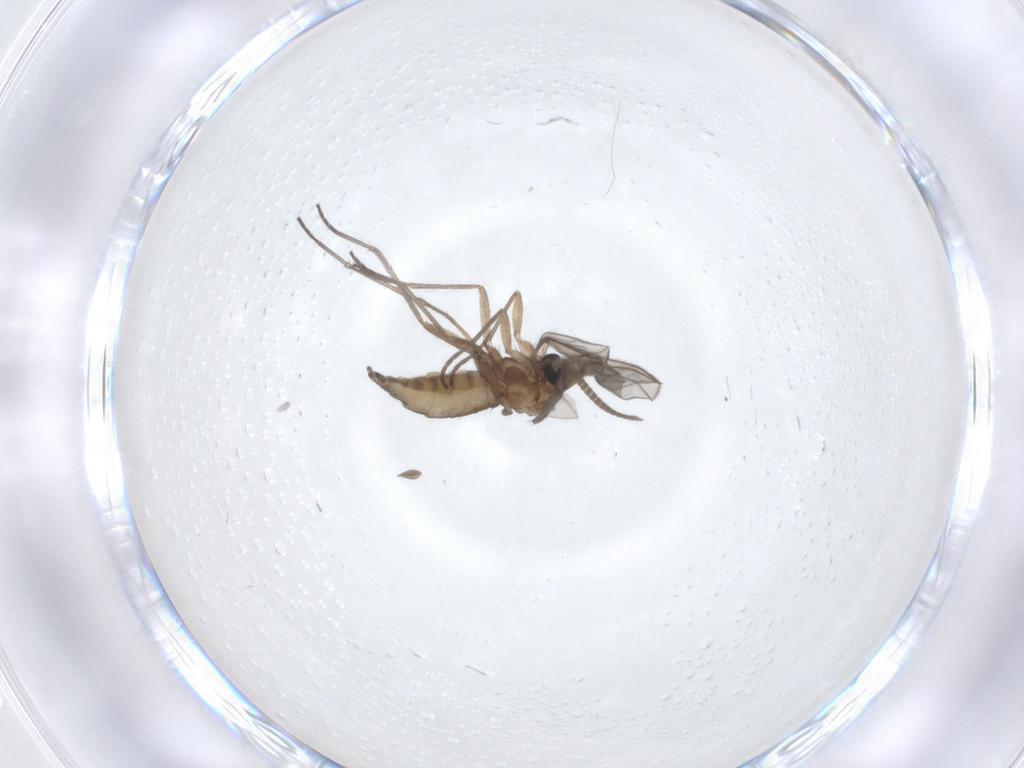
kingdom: Animalia
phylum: Arthropoda
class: Insecta
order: Diptera
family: Sciaridae
